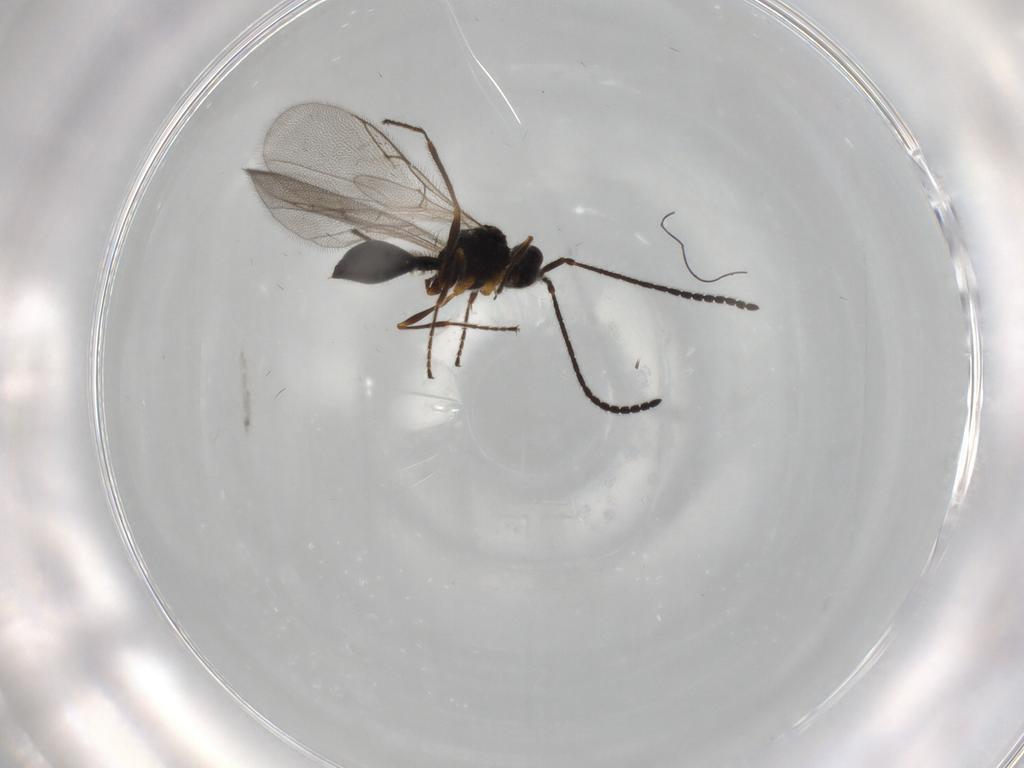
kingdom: Animalia
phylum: Arthropoda
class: Insecta
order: Hymenoptera
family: Diapriidae
